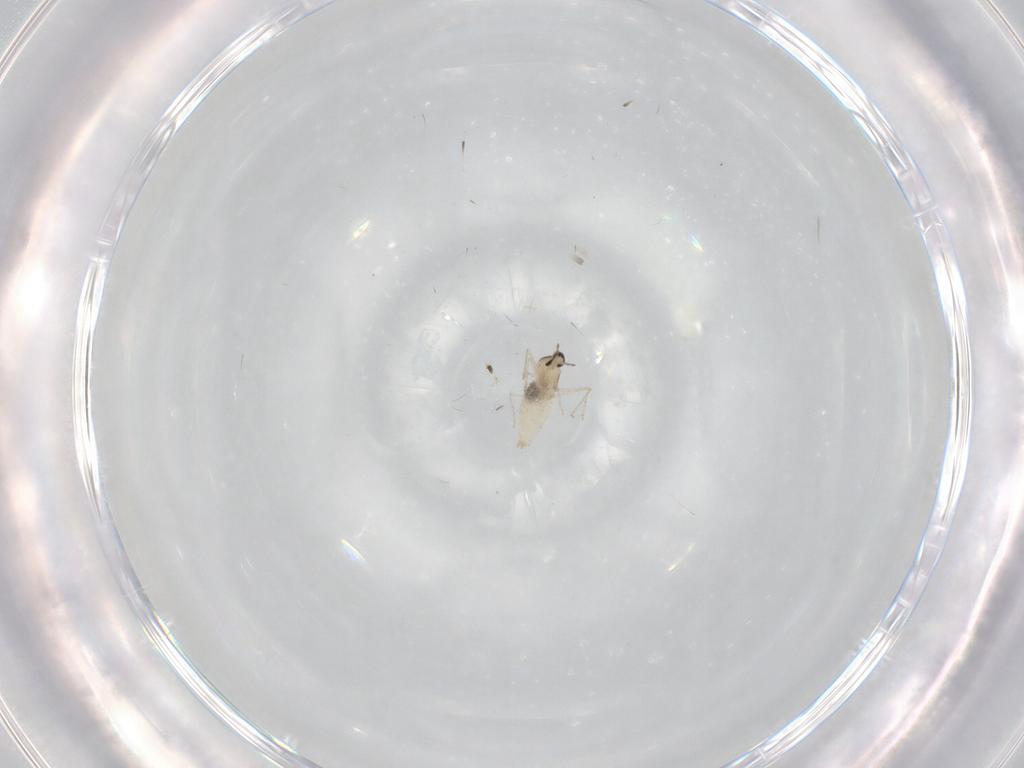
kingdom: Animalia
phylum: Arthropoda
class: Insecta
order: Diptera
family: Cecidomyiidae
